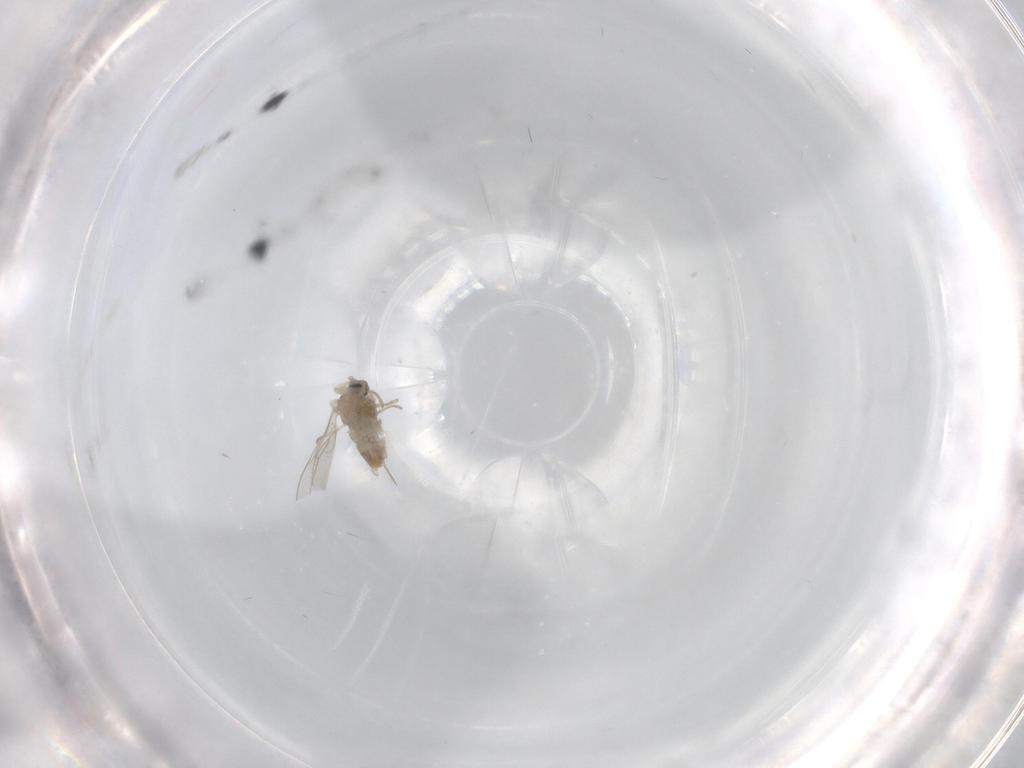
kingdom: Animalia
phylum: Arthropoda
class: Insecta
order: Diptera
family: Cecidomyiidae
